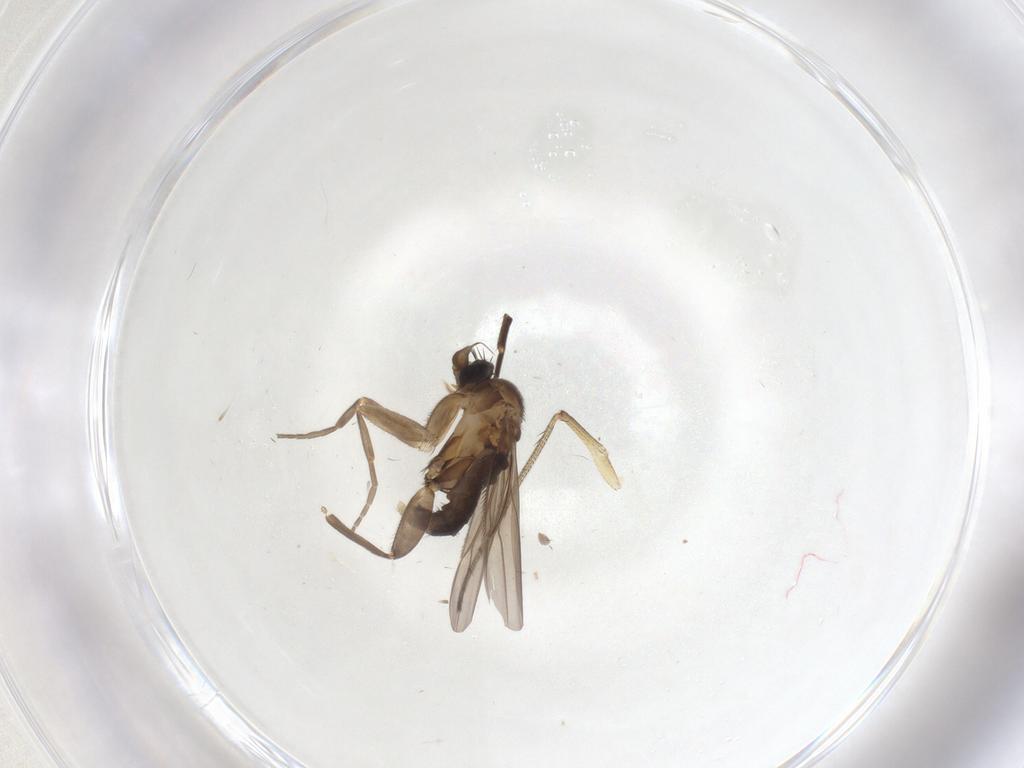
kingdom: Animalia
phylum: Arthropoda
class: Insecta
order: Diptera
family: Phoridae
